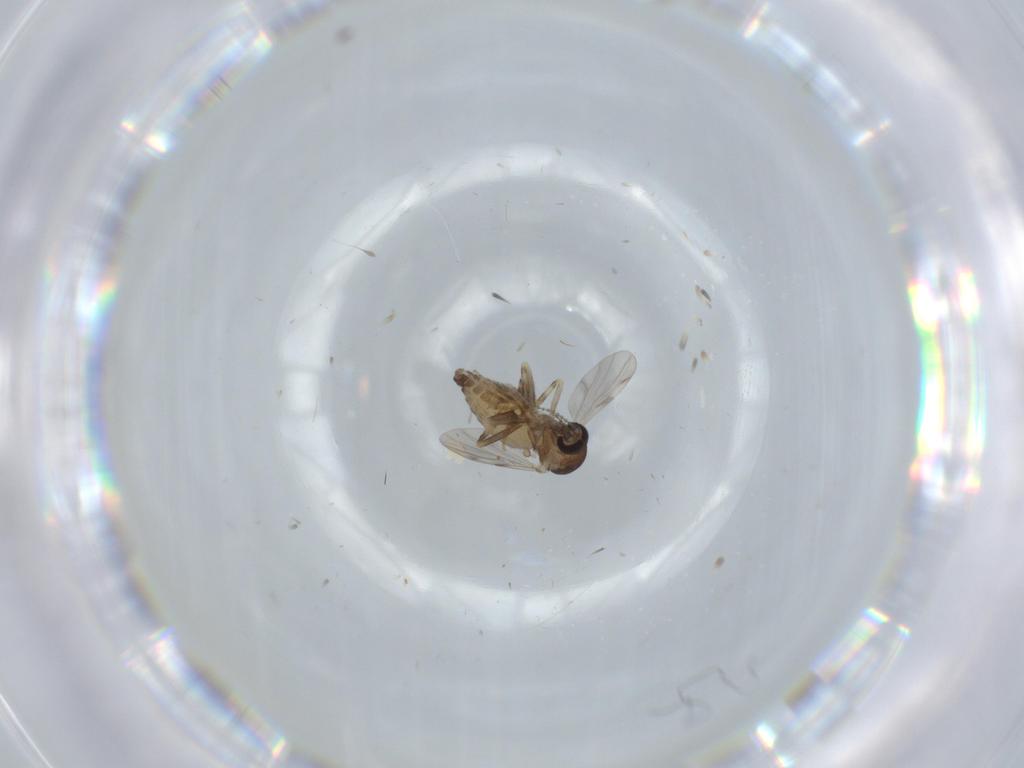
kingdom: Animalia
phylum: Arthropoda
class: Insecta
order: Diptera
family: Ceratopogonidae
